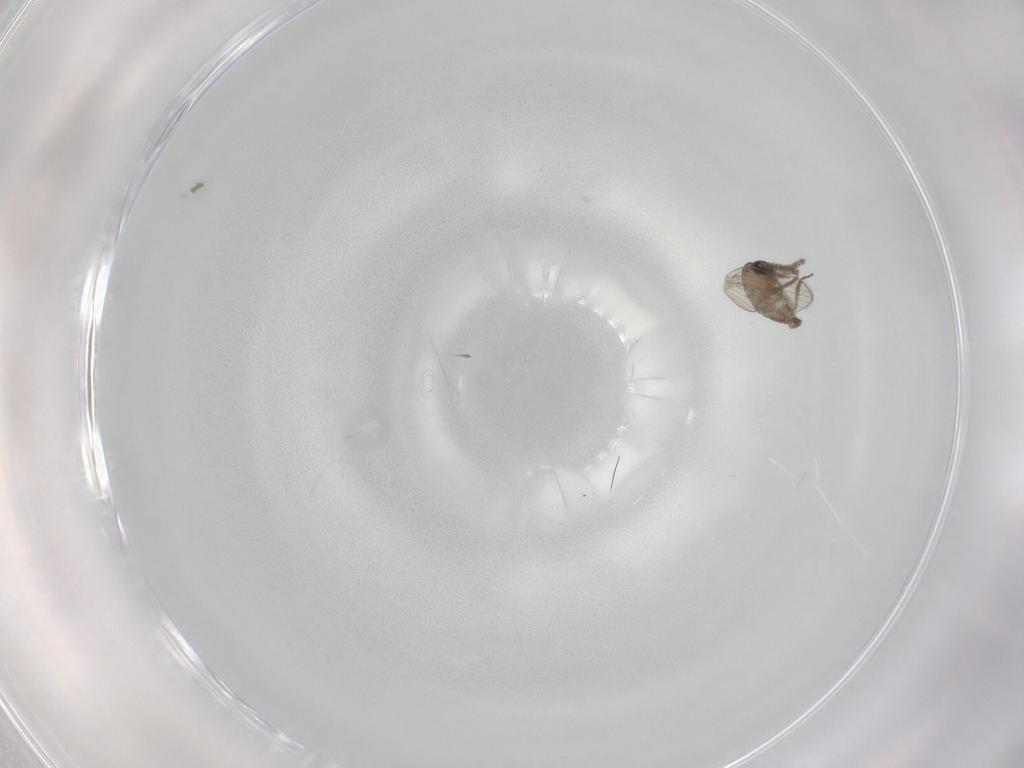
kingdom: Animalia
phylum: Arthropoda
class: Insecta
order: Diptera
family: Psychodidae
